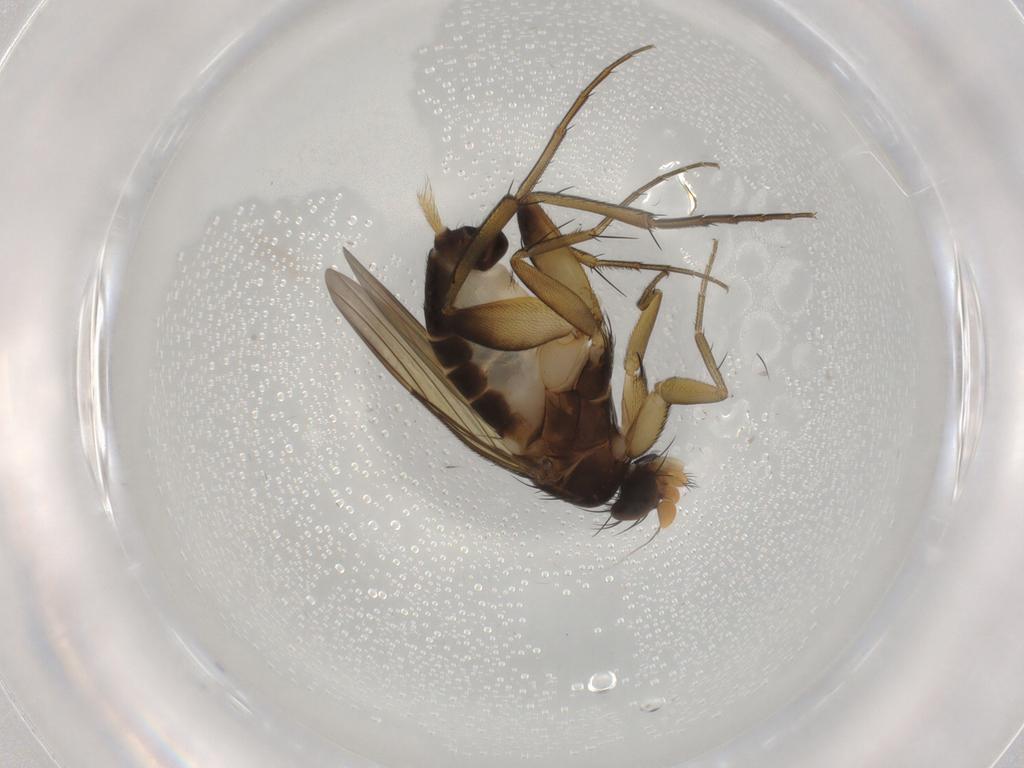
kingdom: Animalia
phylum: Arthropoda
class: Insecta
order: Diptera
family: Phoridae
